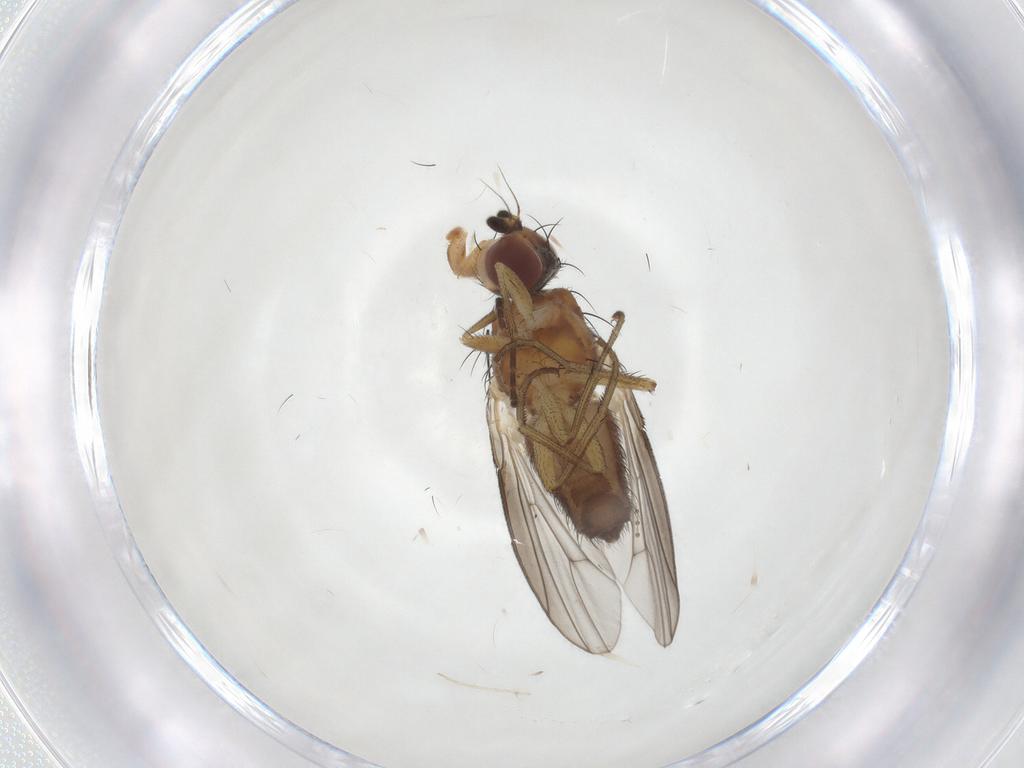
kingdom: Animalia
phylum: Arthropoda
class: Insecta
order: Diptera
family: Heleomyzidae
